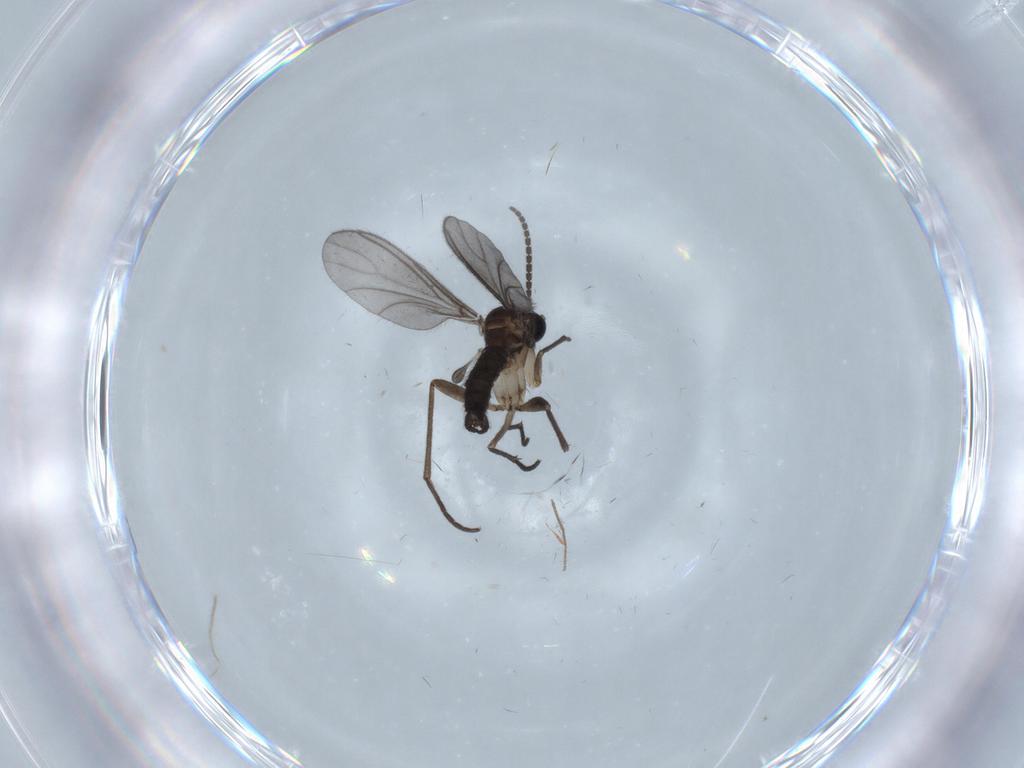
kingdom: Animalia
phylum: Arthropoda
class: Insecta
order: Diptera
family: Sciaridae
